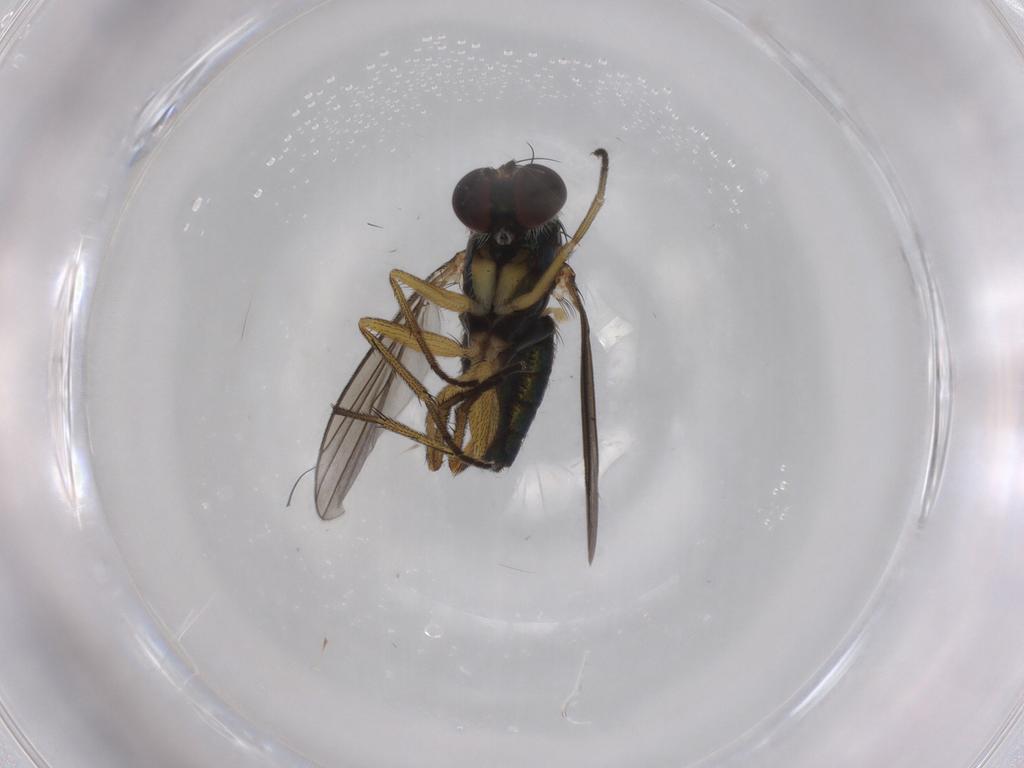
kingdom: Animalia
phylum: Arthropoda
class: Insecta
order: Diptera
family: Dolichopodidae
